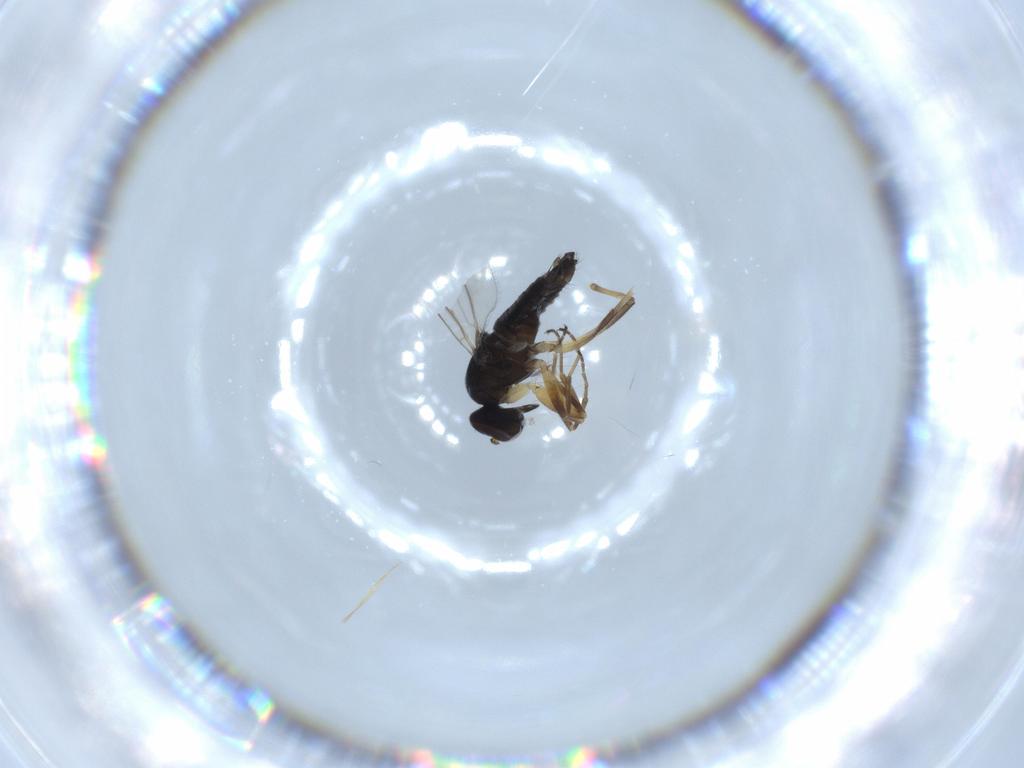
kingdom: Animalia
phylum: Arthropoda
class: Insecta
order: Diptera
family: Hybotidae
